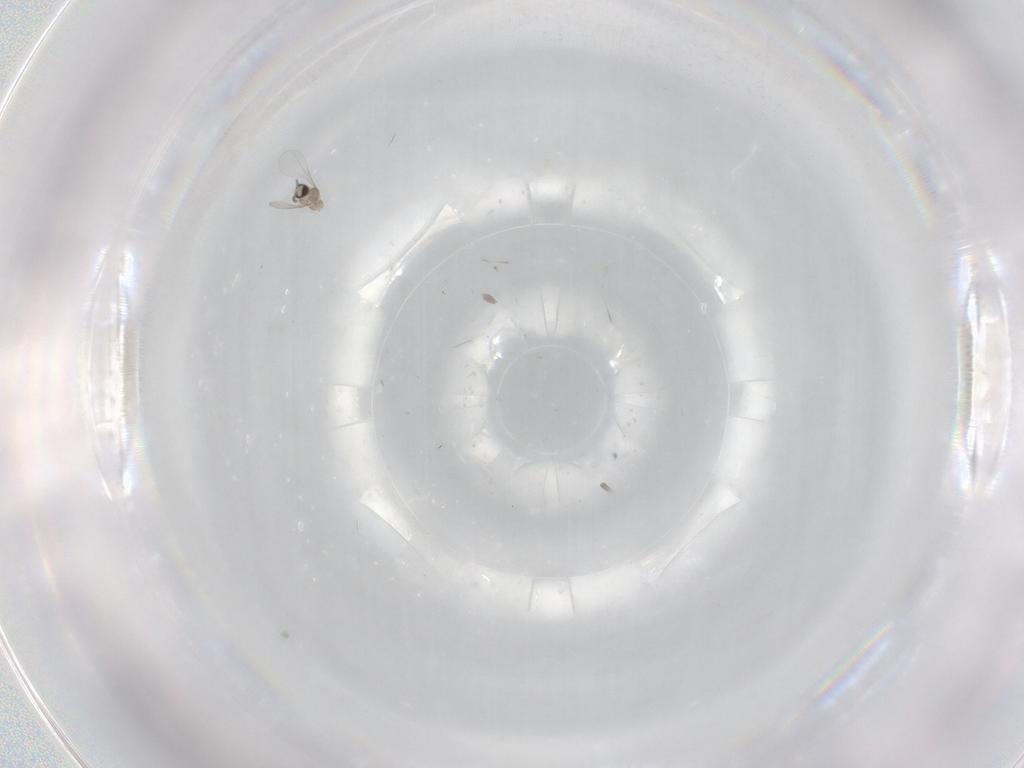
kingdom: Animalia
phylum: Arthropoda
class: Insecta
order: Diptera
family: Cecidomyiidae
